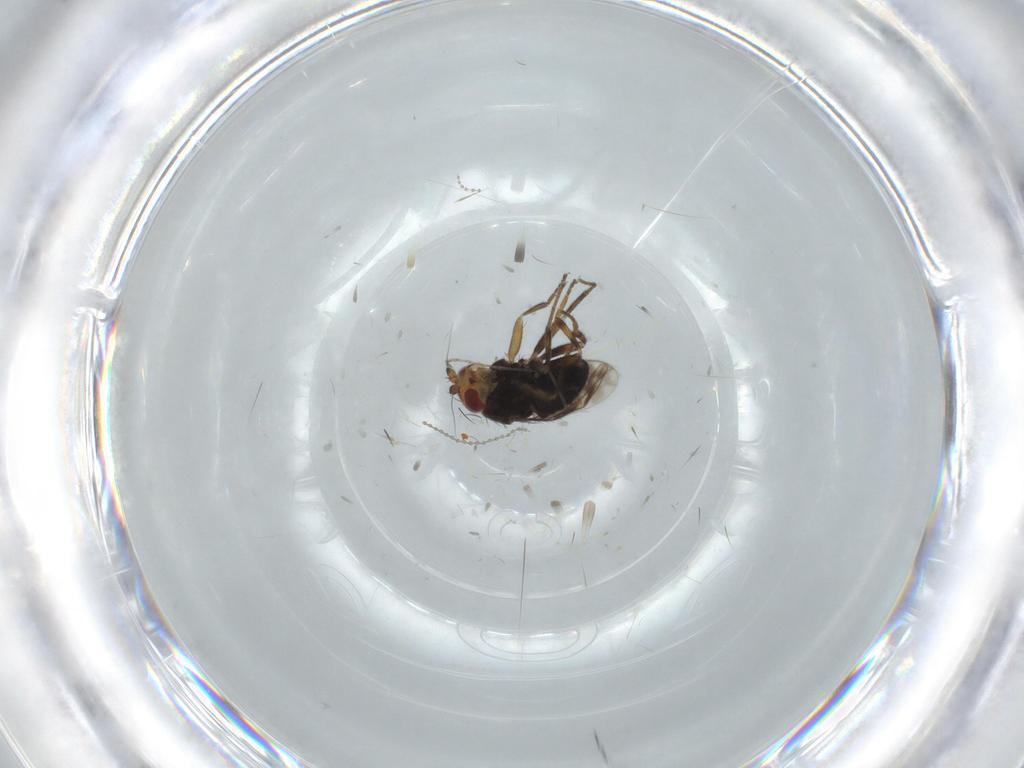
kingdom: Animalia
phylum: Arthropoda
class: Insecta
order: Diptera
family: Sphaeroceridae
